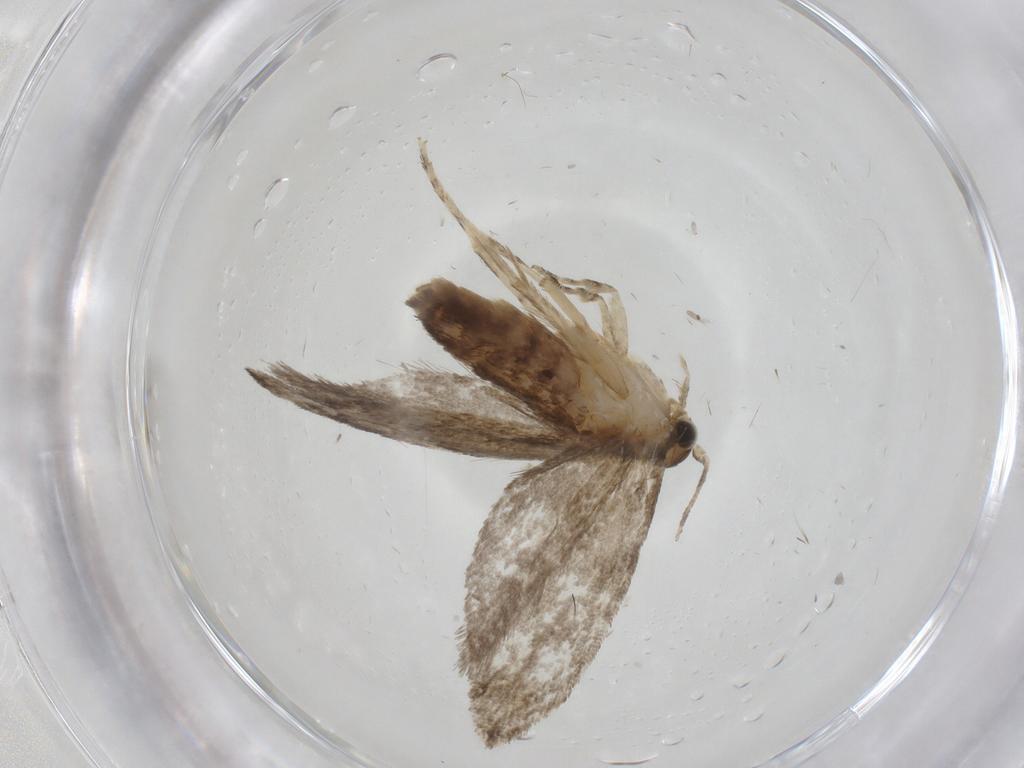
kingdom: Animalia
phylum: Arthropoda
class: Insecta
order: Lepidoptera
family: Tineidae
